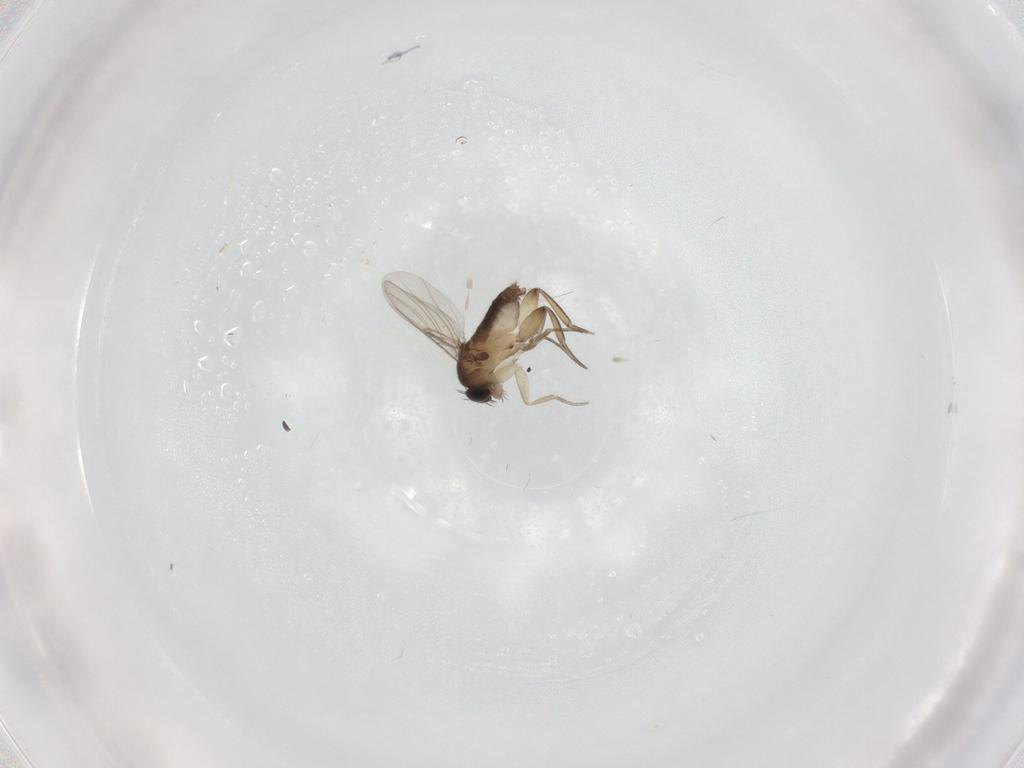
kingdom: Animalia
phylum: Arthropoda
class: Insecta
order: Diptera
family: Phoridae
